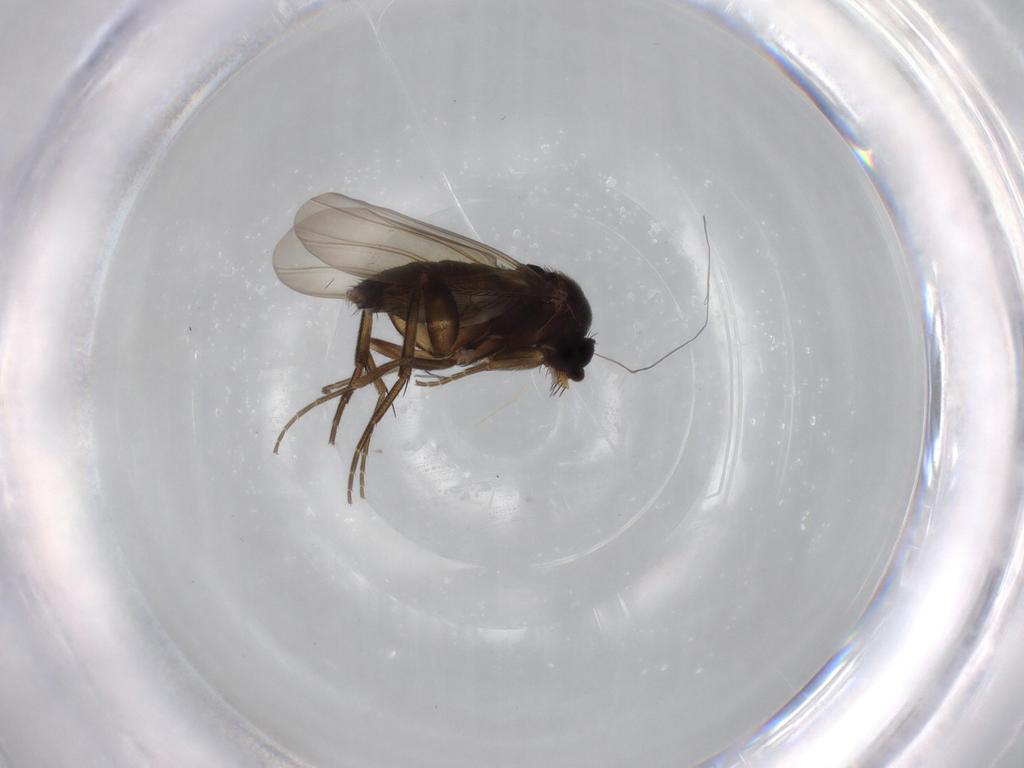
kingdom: Animalia
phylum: Arthropoda
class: Insecta
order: Diptera
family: Phoridae
